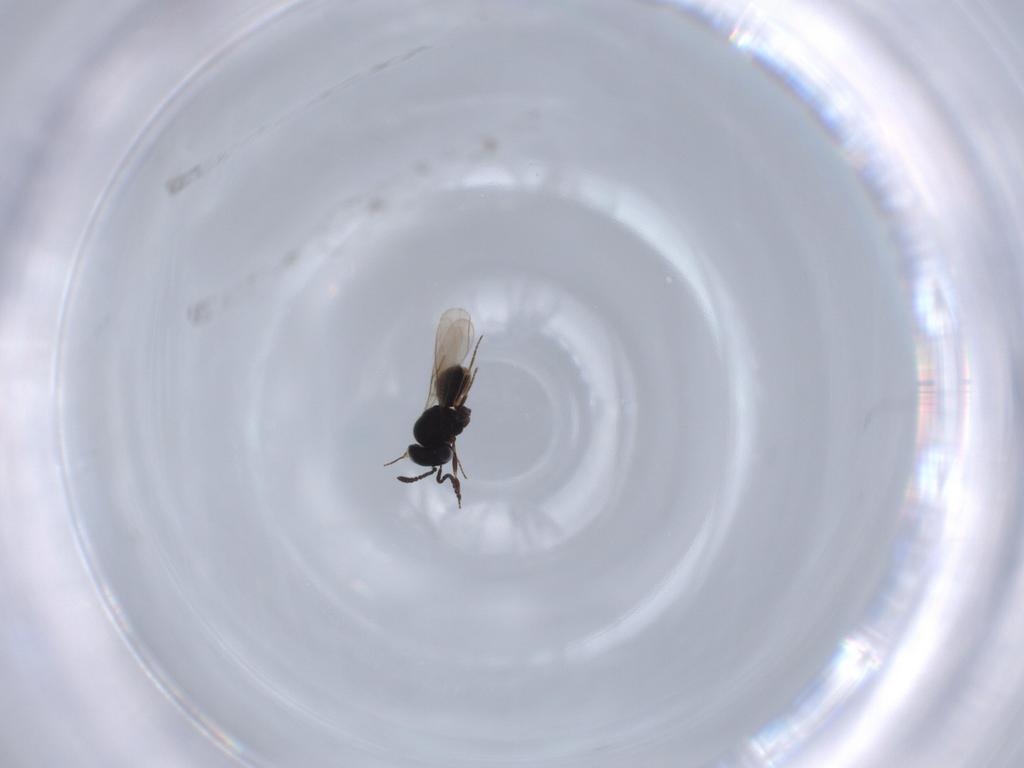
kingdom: Animalia
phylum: Arthropoda
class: Insecta
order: Hymenoptera
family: Scelionidae
